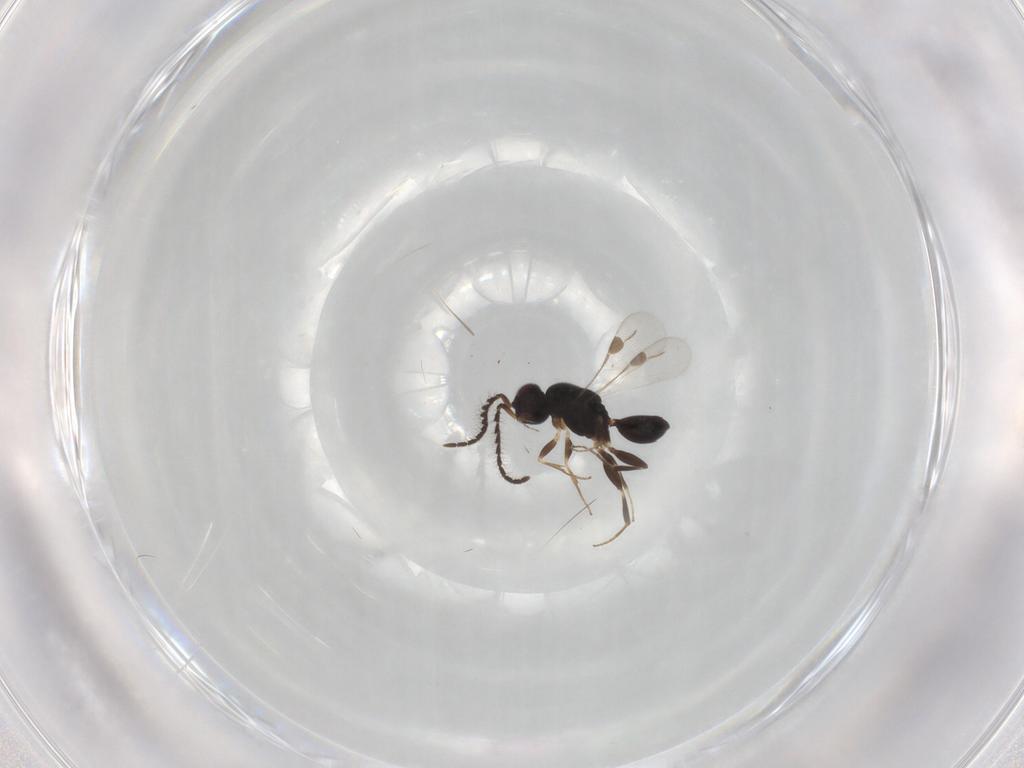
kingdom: Animalia
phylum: Arthropoda
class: Insecta
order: Hymenoptera
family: Megaspilidae
